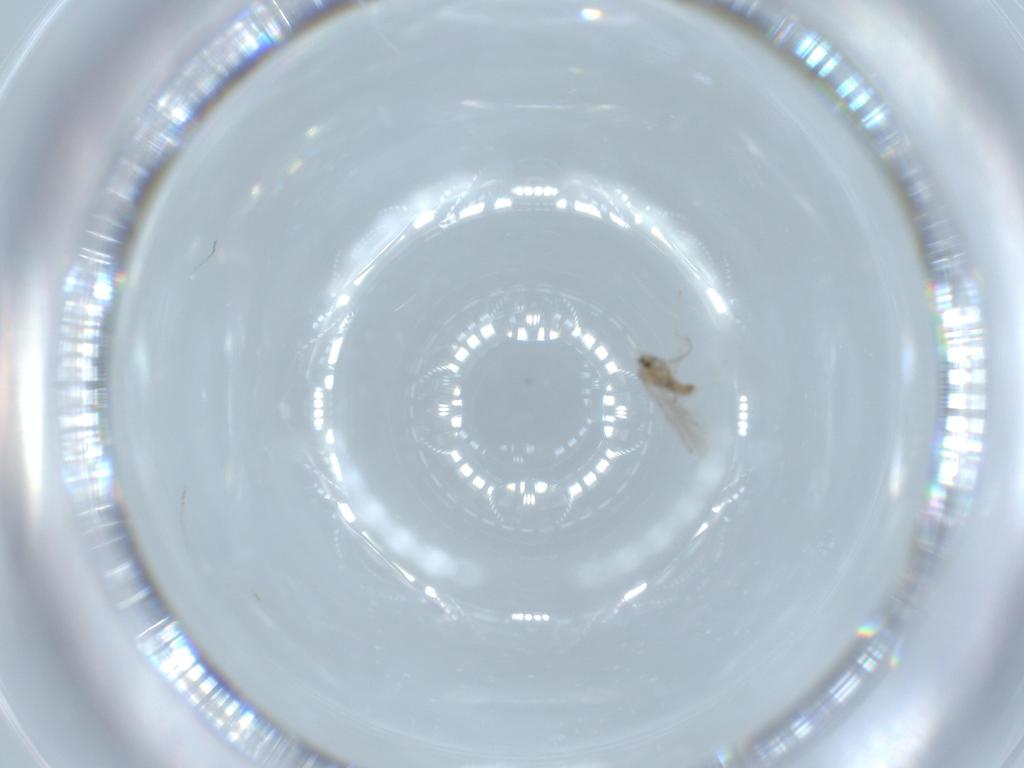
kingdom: Animalia
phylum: Arthropoda
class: Insecta
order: Diptera
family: Cecidomyiidae
